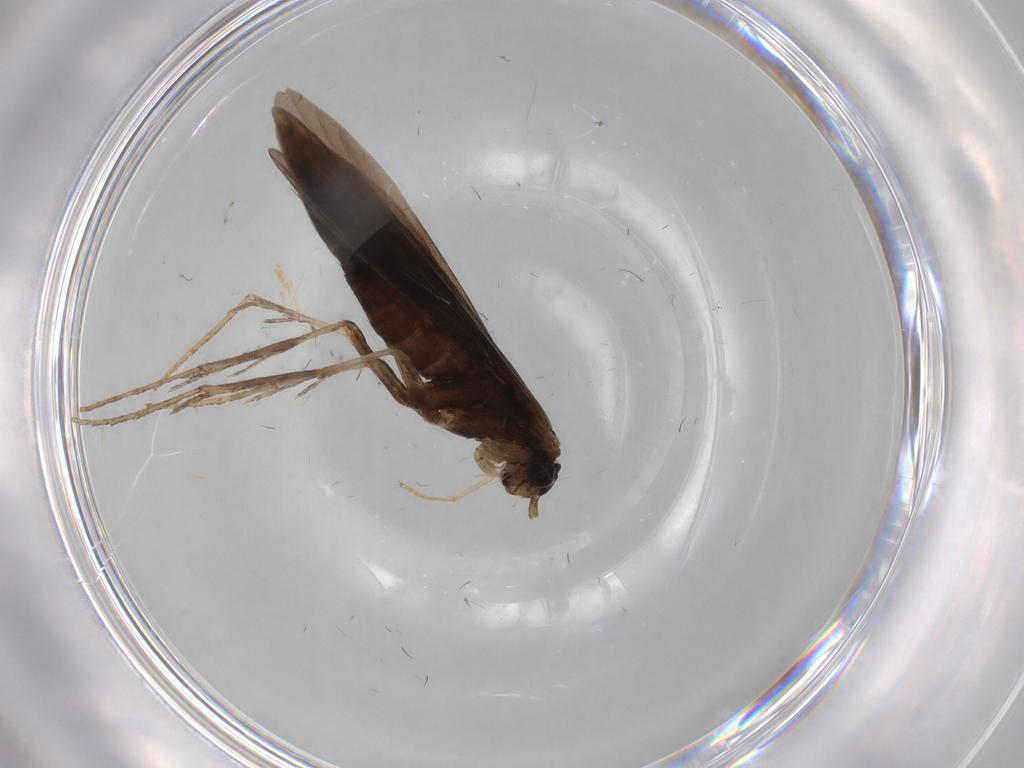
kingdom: Animalia
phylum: Arthropoda
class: Insecta
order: Trichoptera
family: Xiphocentronidae
